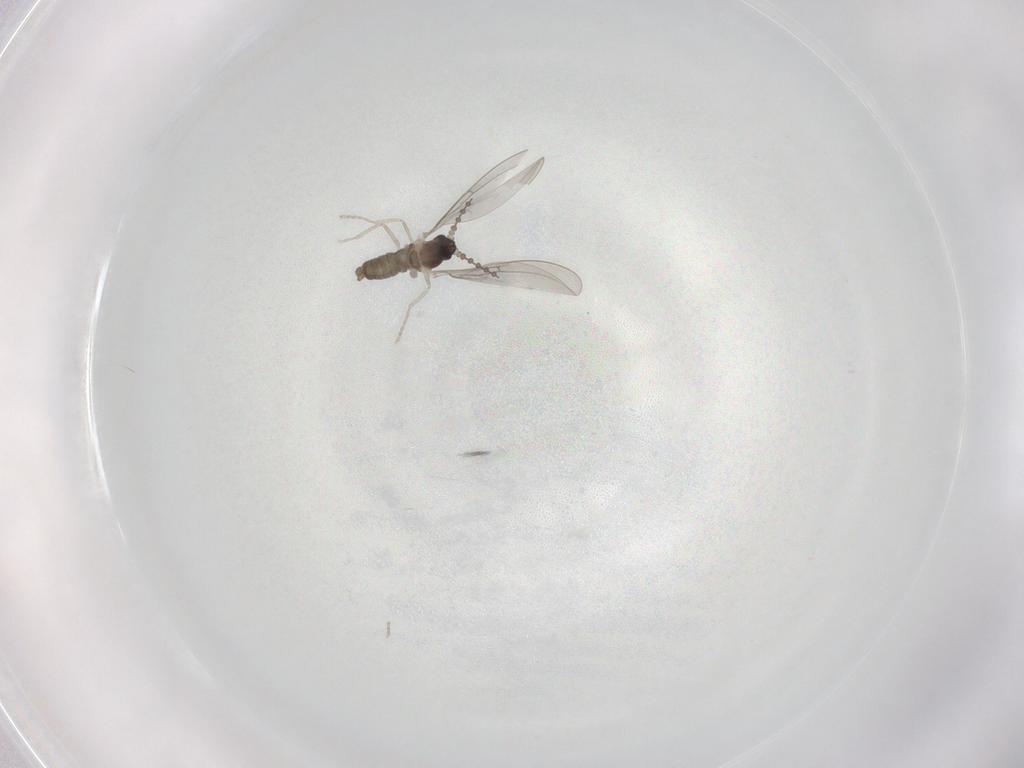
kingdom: Animalia
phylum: Arthropoda
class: Insecta
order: Diptera
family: Cecidomyiidae
